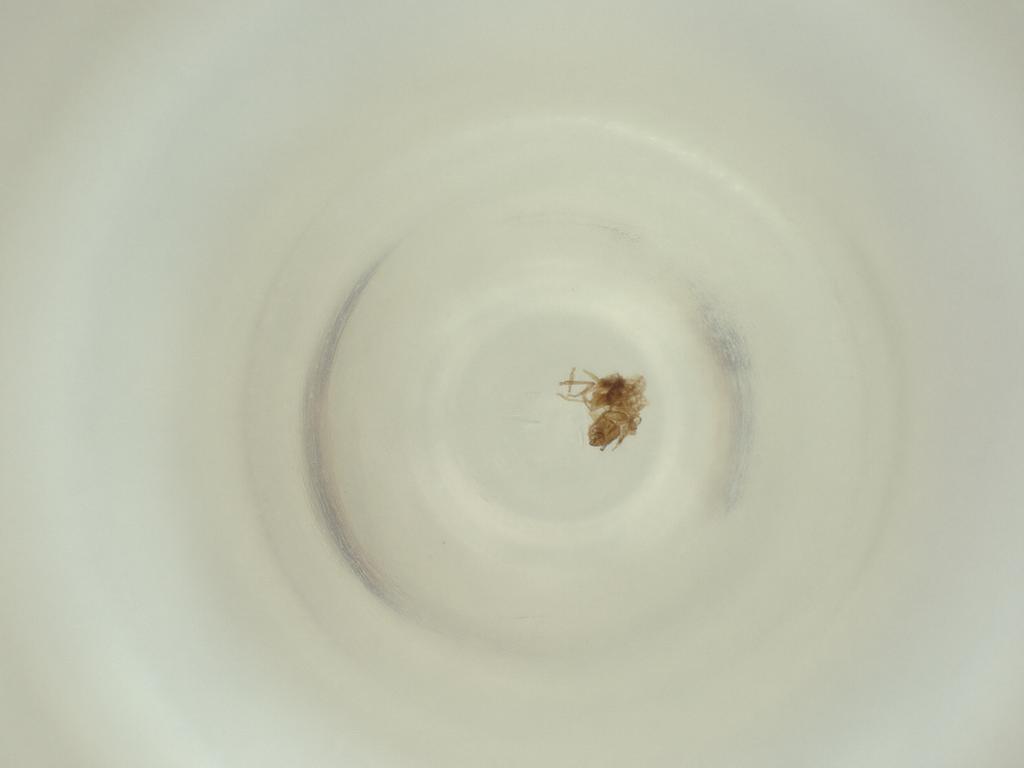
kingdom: Animalia
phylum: Arthropoda
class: Insecta
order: Diptera
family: Cecidomyiidae
